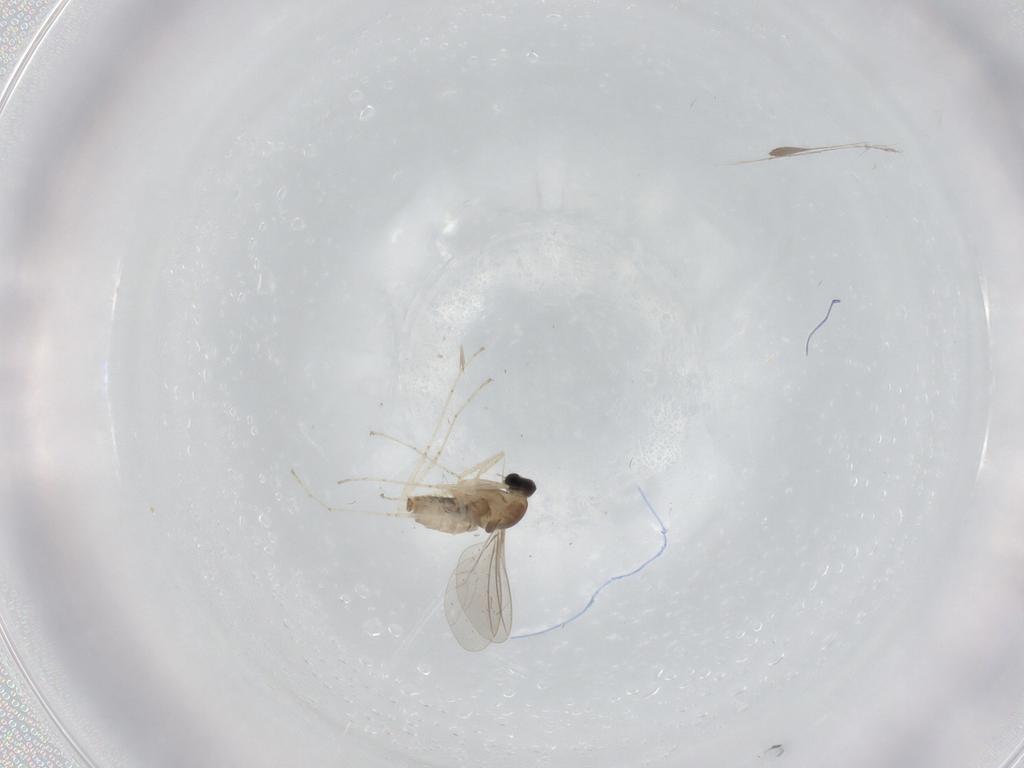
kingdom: Animalia
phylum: Arthropoda
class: Insecta
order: Diptera
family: Cecidomyiidae
